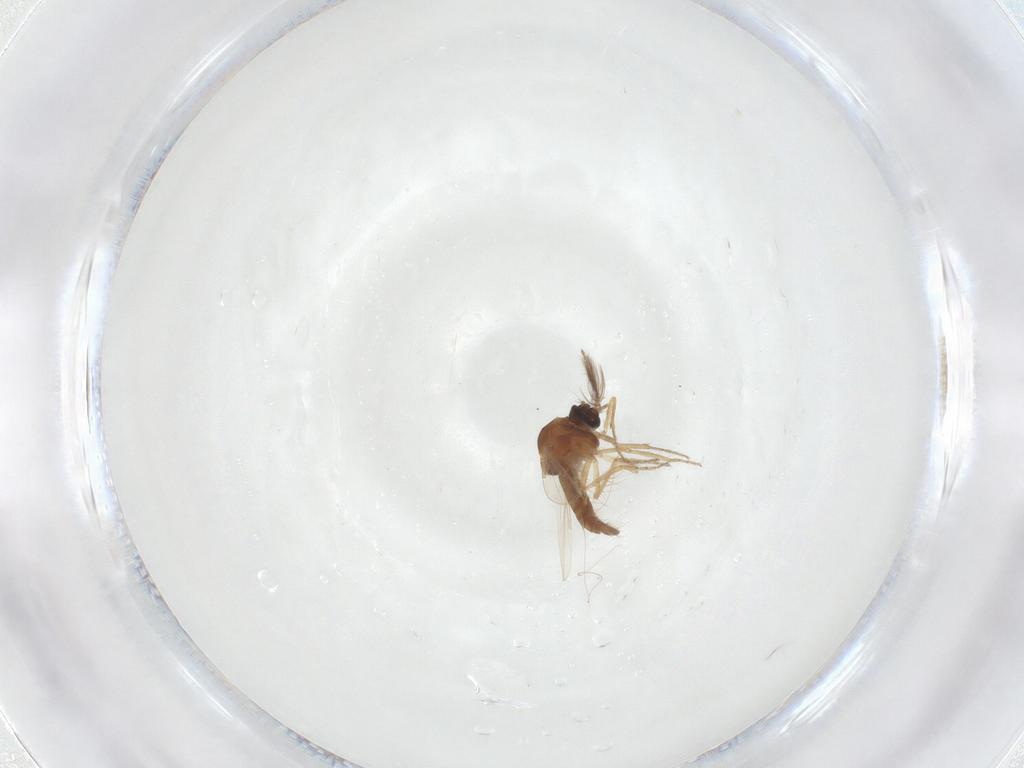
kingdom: Animalia
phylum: Arthropoda
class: Insecta
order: Diptera
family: Ceratopogonidae
